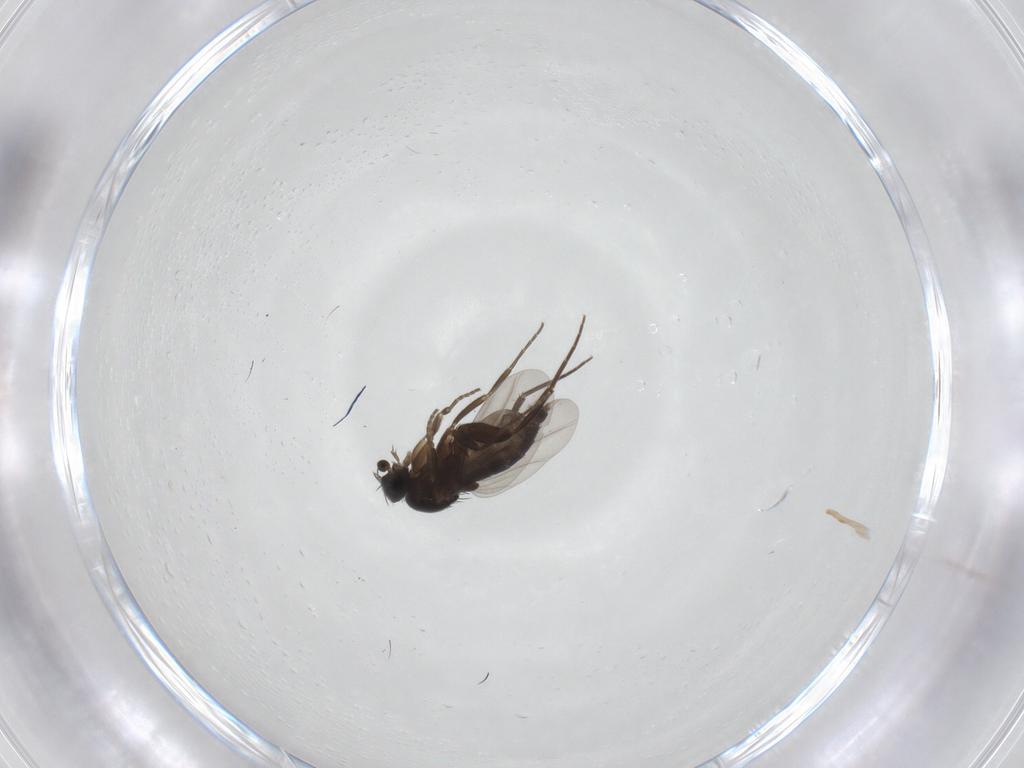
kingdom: Animalia
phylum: Arthropoda
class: Insecta
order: Diptera
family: Phoridae
